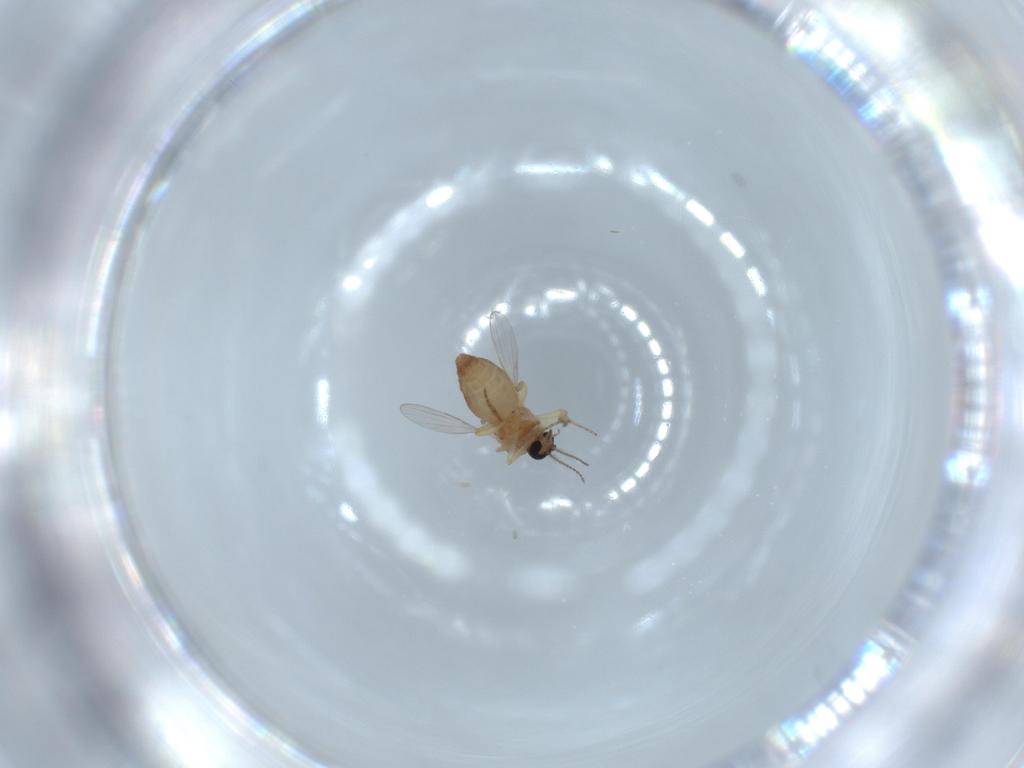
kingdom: Animalia
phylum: Arthropoda
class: Insecta
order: Diptera
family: Ceratopogonidae
